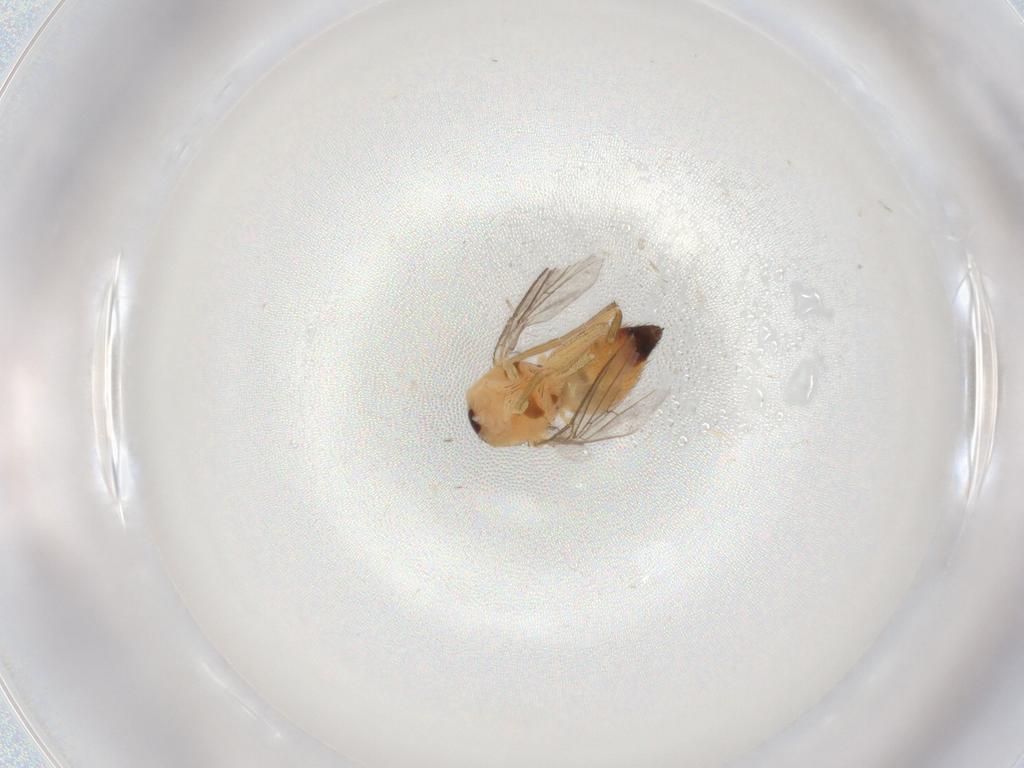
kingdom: Animalia
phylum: Arthropoda
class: Insecta
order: Diptera
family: Agromyzidae
